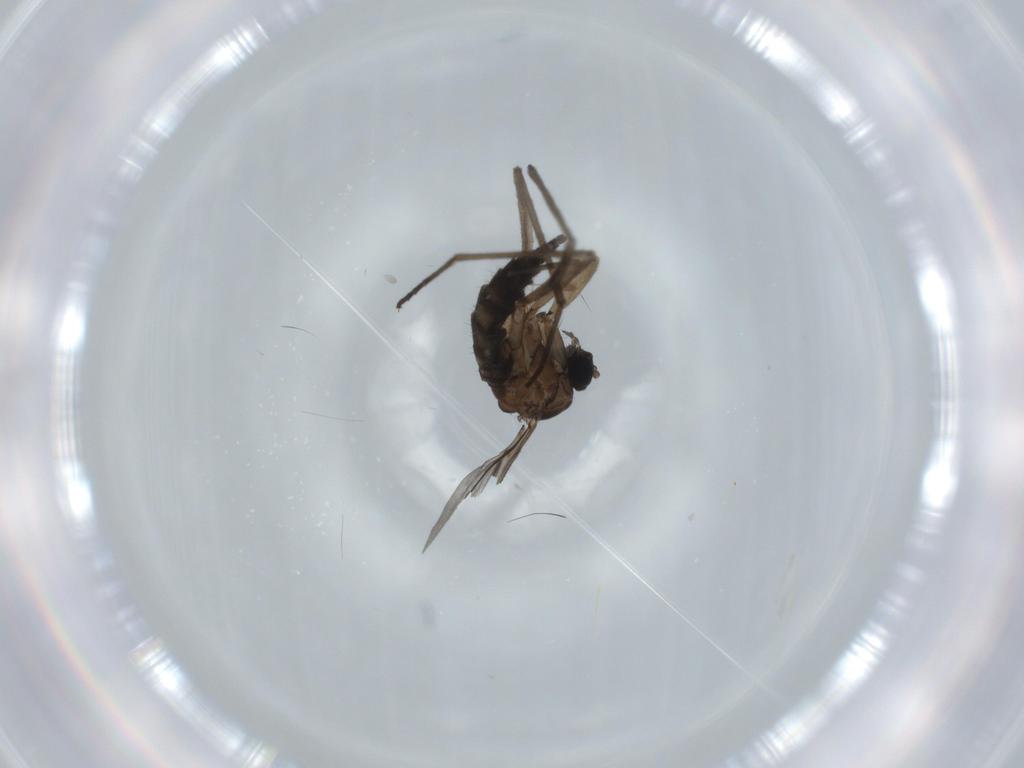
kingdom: Animalia
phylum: Arthropoda
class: Insecta
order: Diptera
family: Sciaridae
